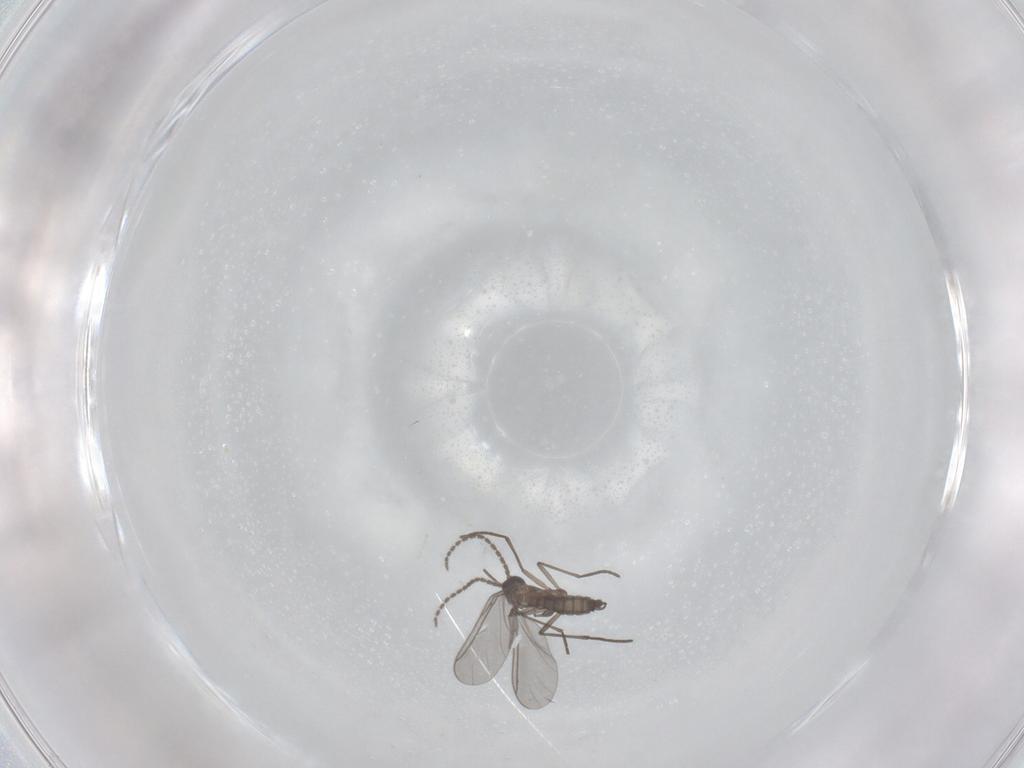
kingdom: Animalia
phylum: Arthropoda
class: Insecta
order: Diptera
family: Sciaridae
